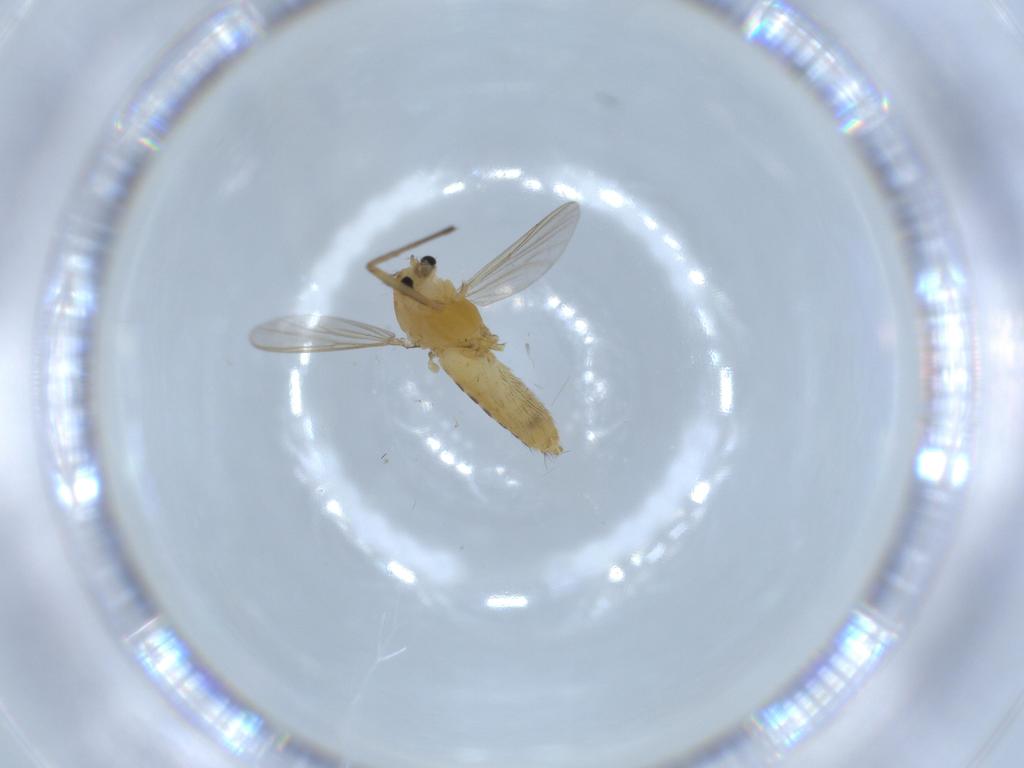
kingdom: Animalia
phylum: Arthropoda
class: Insecta
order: Diptera
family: Chironomidae
